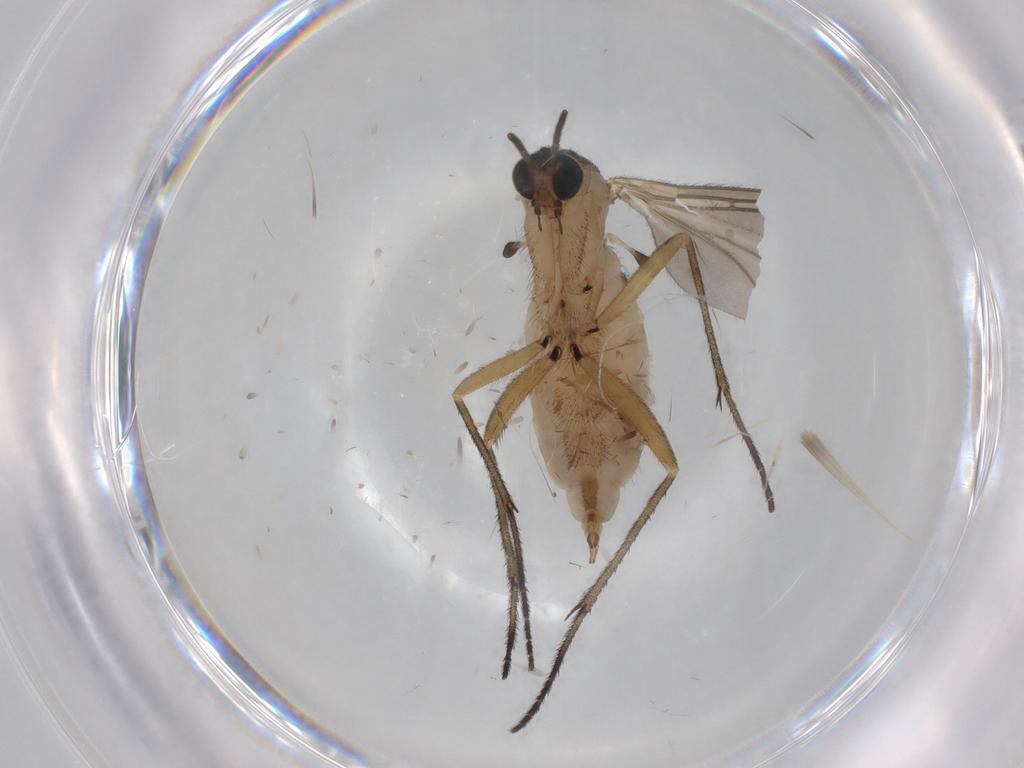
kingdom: Animalia
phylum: Arthropoda
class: Insecta
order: Diptera
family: Sciaridae
